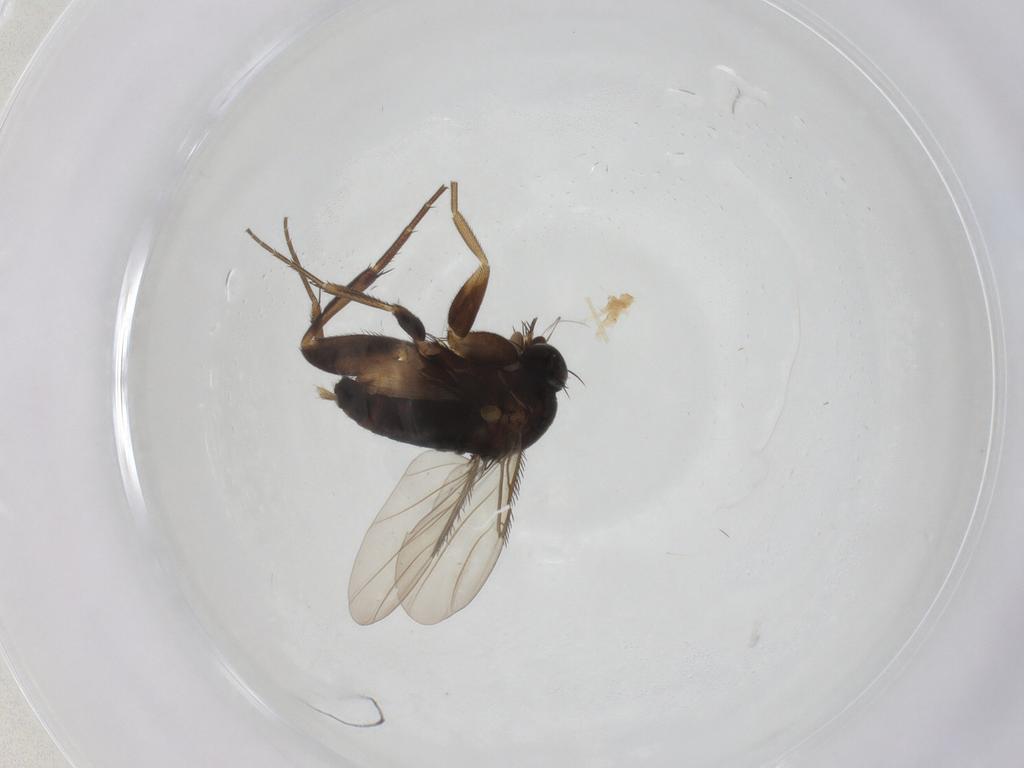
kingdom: Animalia
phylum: Arthropoda
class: Insecta
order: Diptera
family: Phoridae
